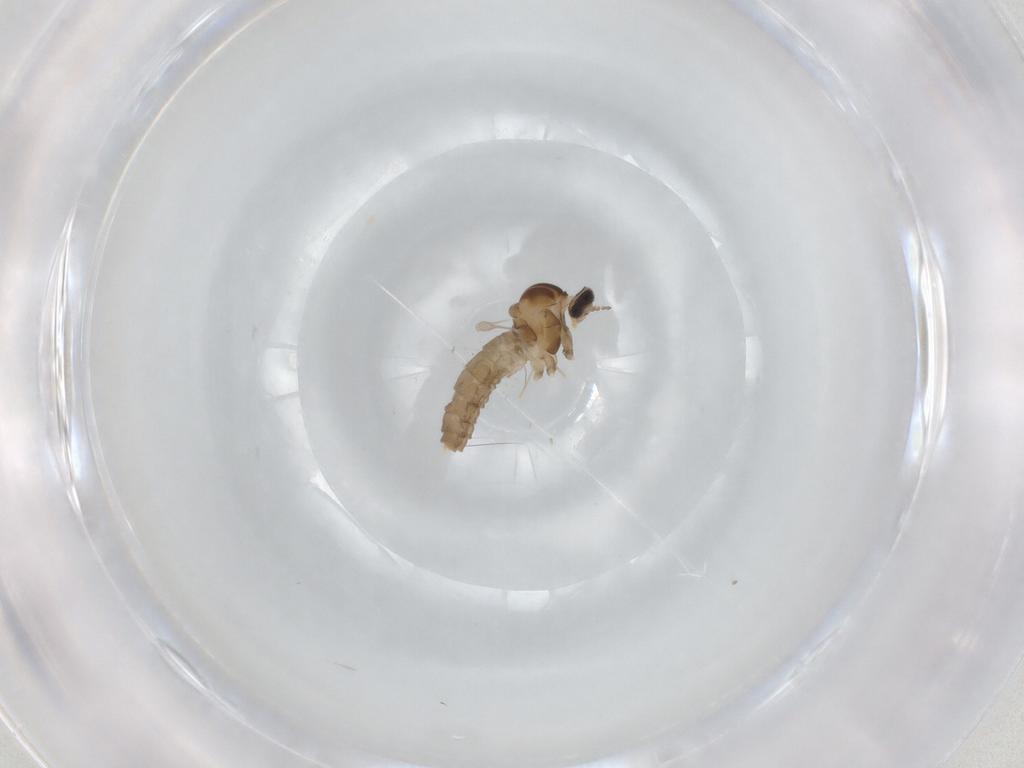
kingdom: Animalia
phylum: Arthropoda
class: Insecta
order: Diptera
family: Cecidomyiidae
